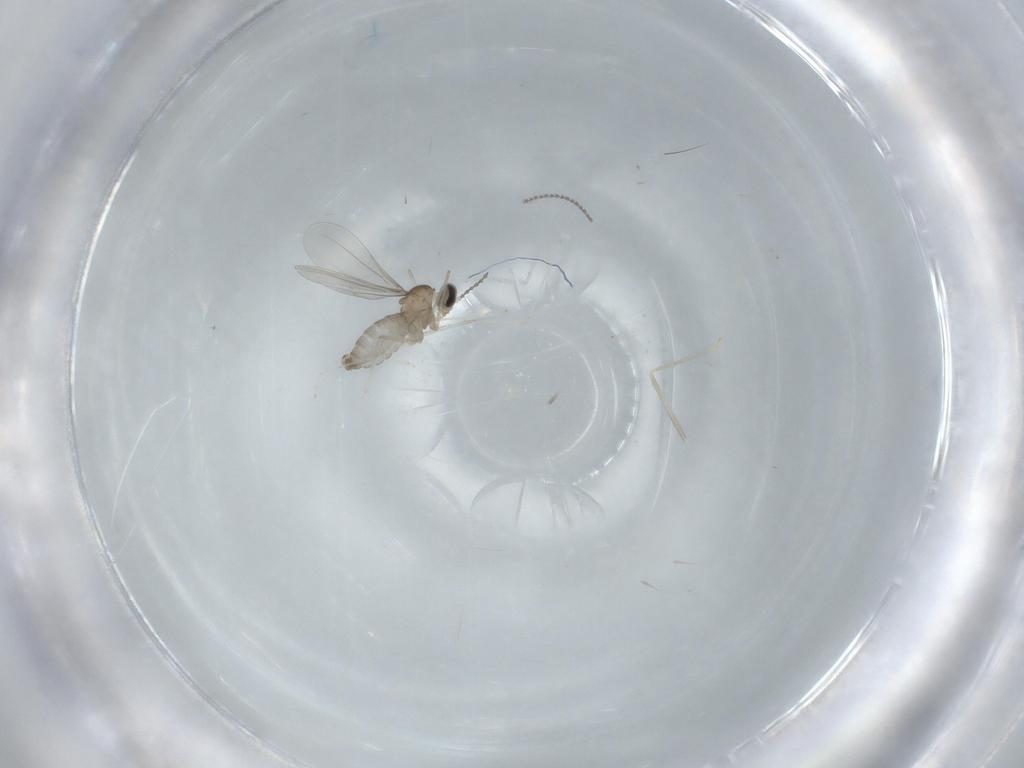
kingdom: Animalia
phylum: Arthropoda
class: Insecta
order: Diptera
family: Cecidomyiidae
